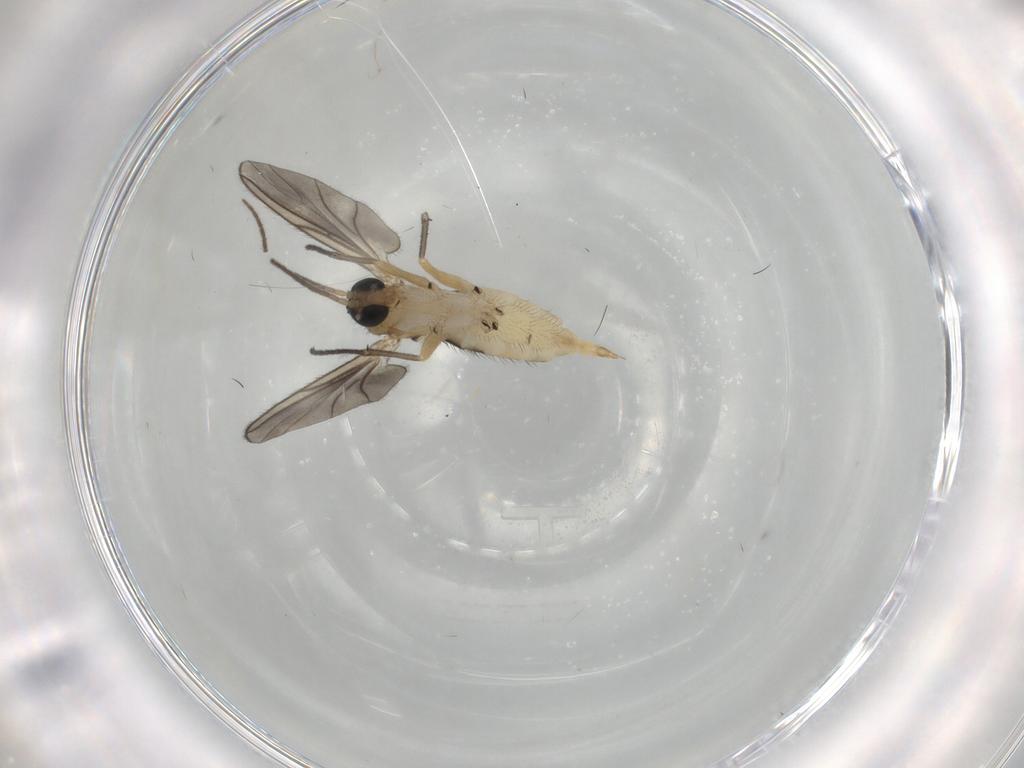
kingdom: Animalia
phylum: Arthropoda
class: Insecta
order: Diptera
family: Sciaridae
